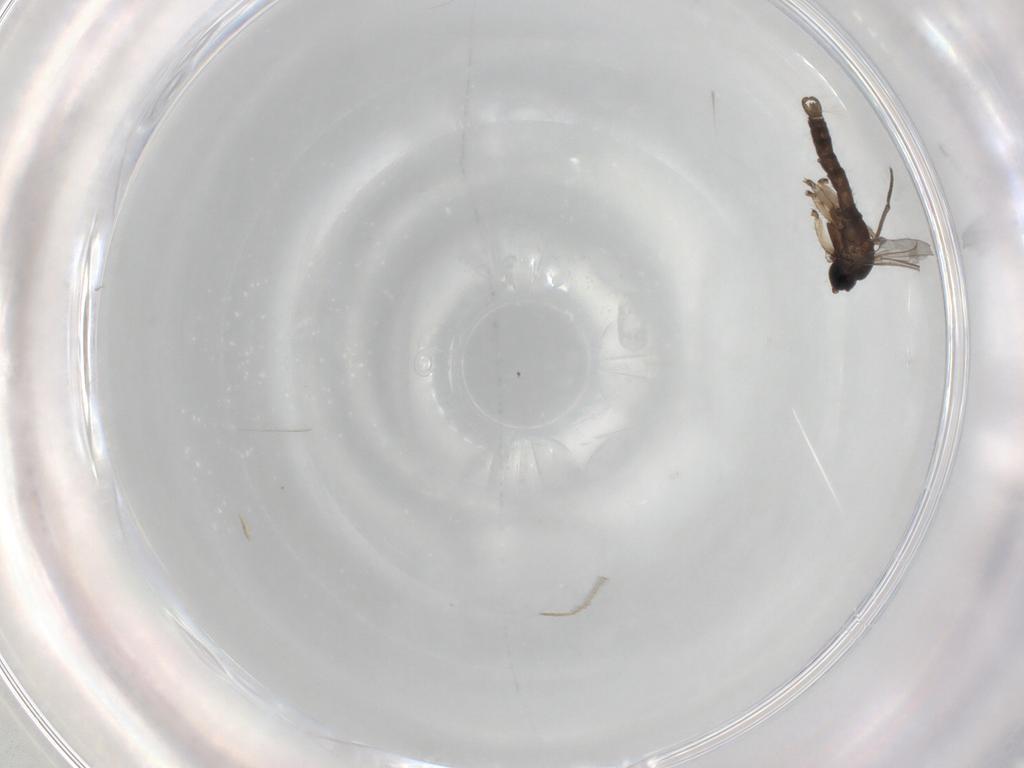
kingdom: Animalia
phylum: Arthropoda
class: Insecta
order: Diptera
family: Sciaridae
